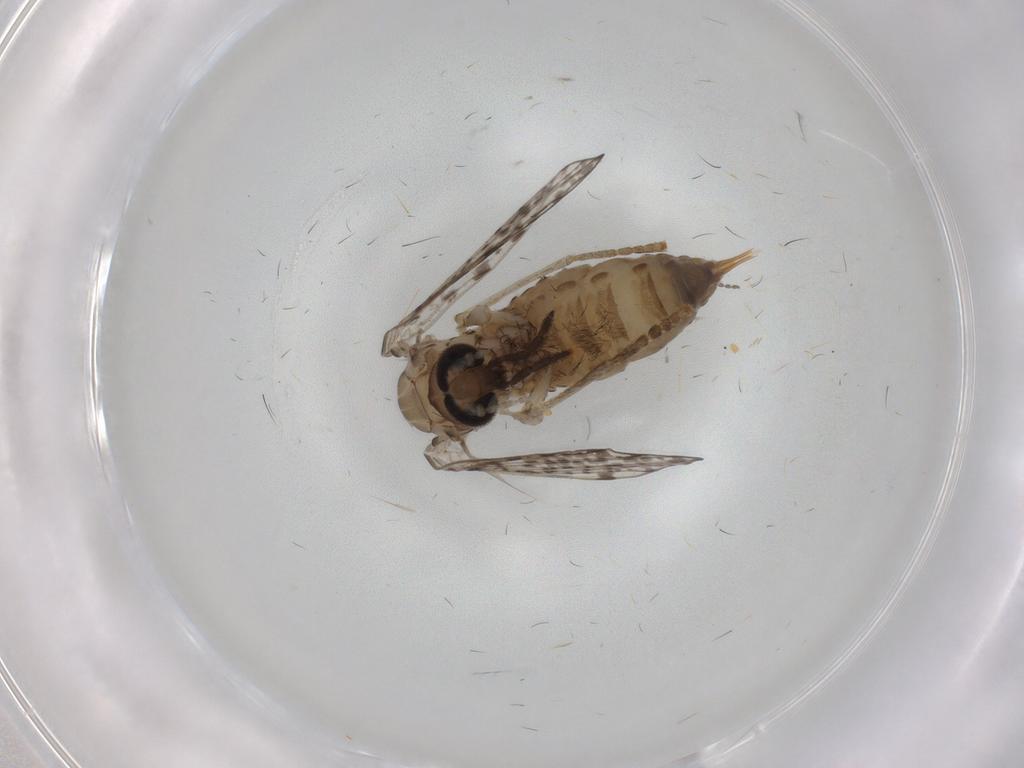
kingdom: Animalia
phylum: Arthropoda
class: Insecta
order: Diptera
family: Psychodidae
